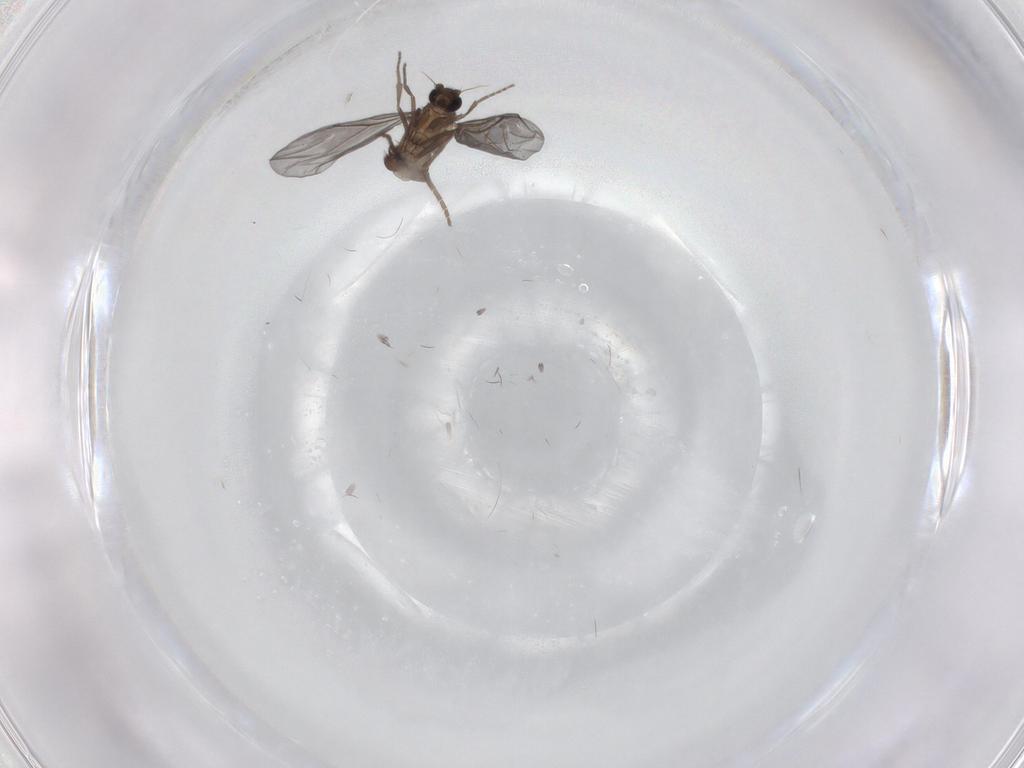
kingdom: Animalia
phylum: Arthropoda
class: Insecta
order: Diptera
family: Phoridae
